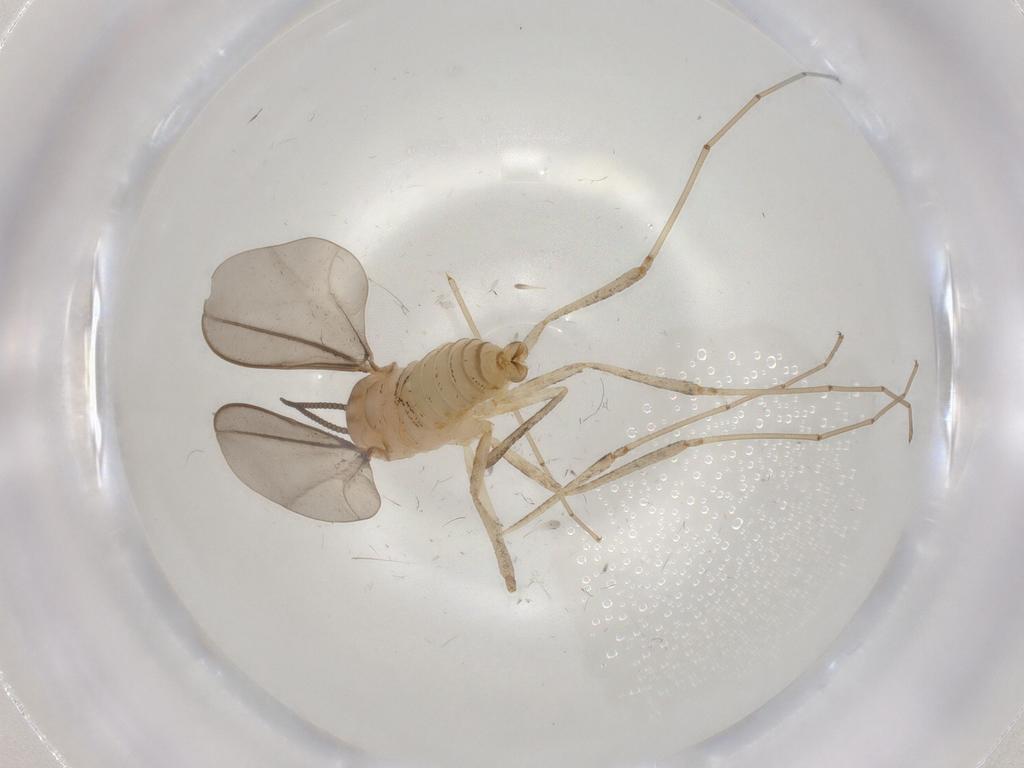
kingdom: Animalia
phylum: Arthropoda
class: Insecta
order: Diptera
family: Cecidomyiidae
